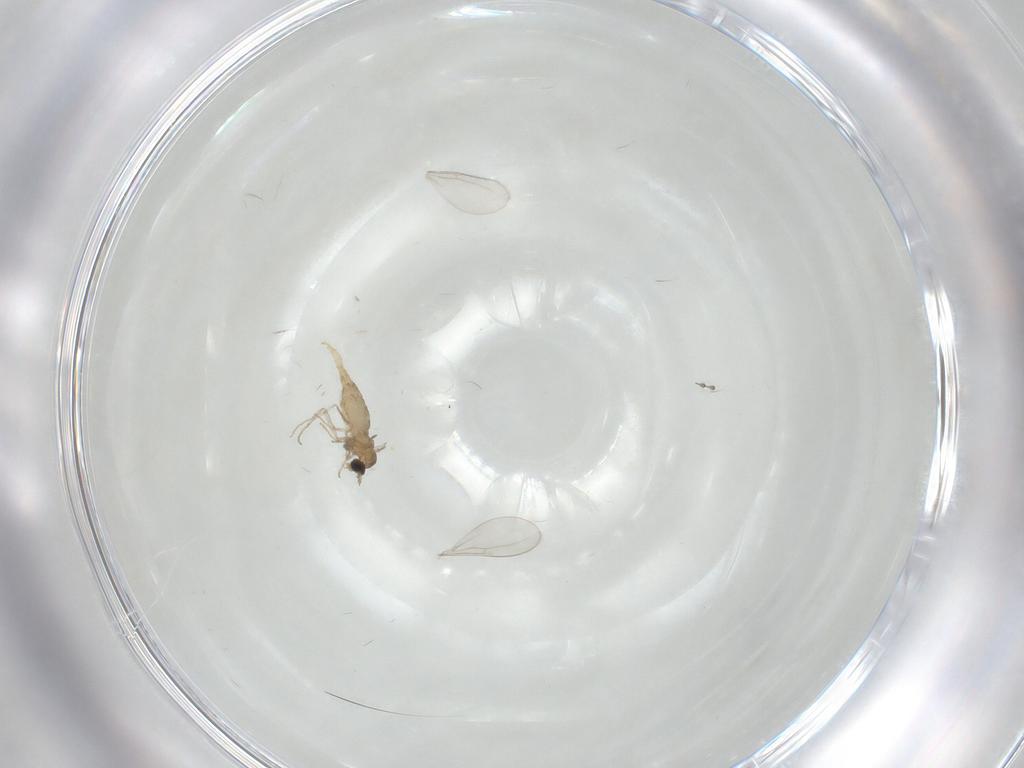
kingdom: Animalia
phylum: Arthropoda
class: Insecta
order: Diptera
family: Cecidomyiidae
